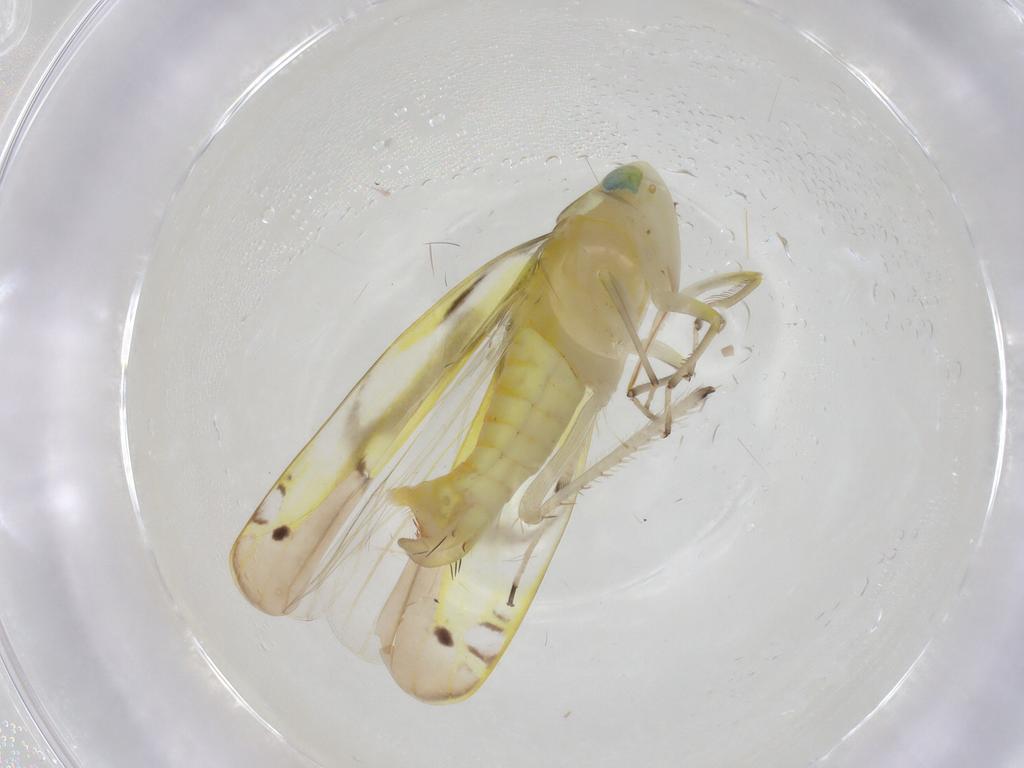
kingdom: Animalia
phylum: Arthropoda
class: Insecta
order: Hemiptera
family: Cicadellidae
